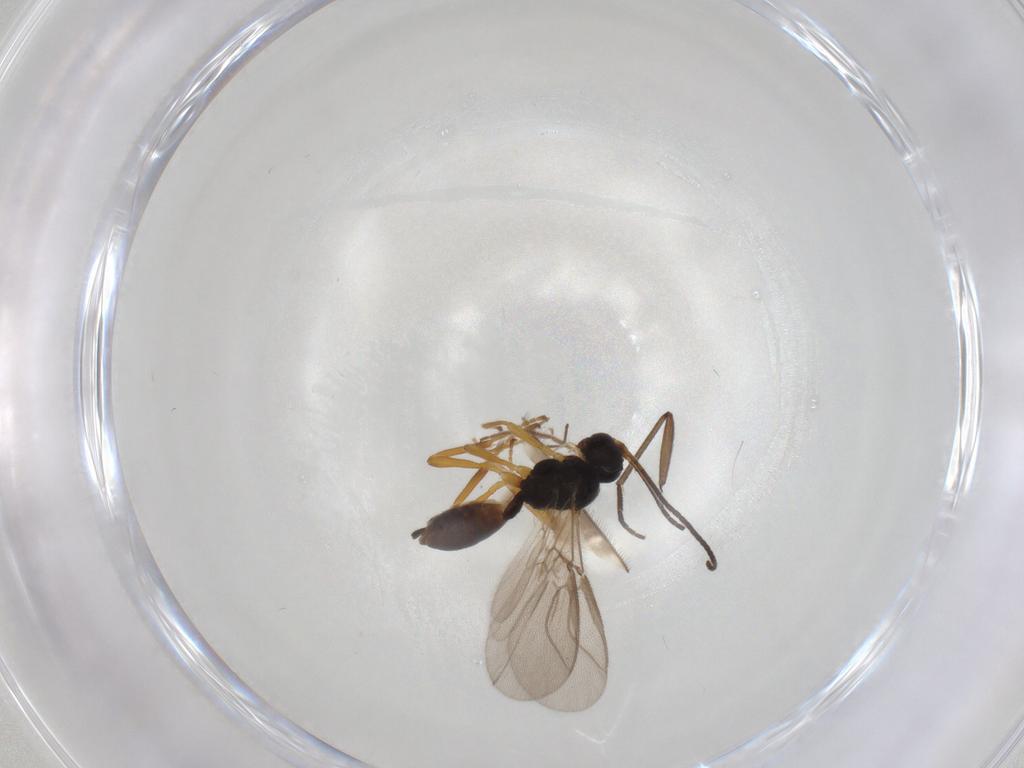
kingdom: Animalia
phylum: Arthropoda
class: Insecta
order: Hymenoptera
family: Braconidae
